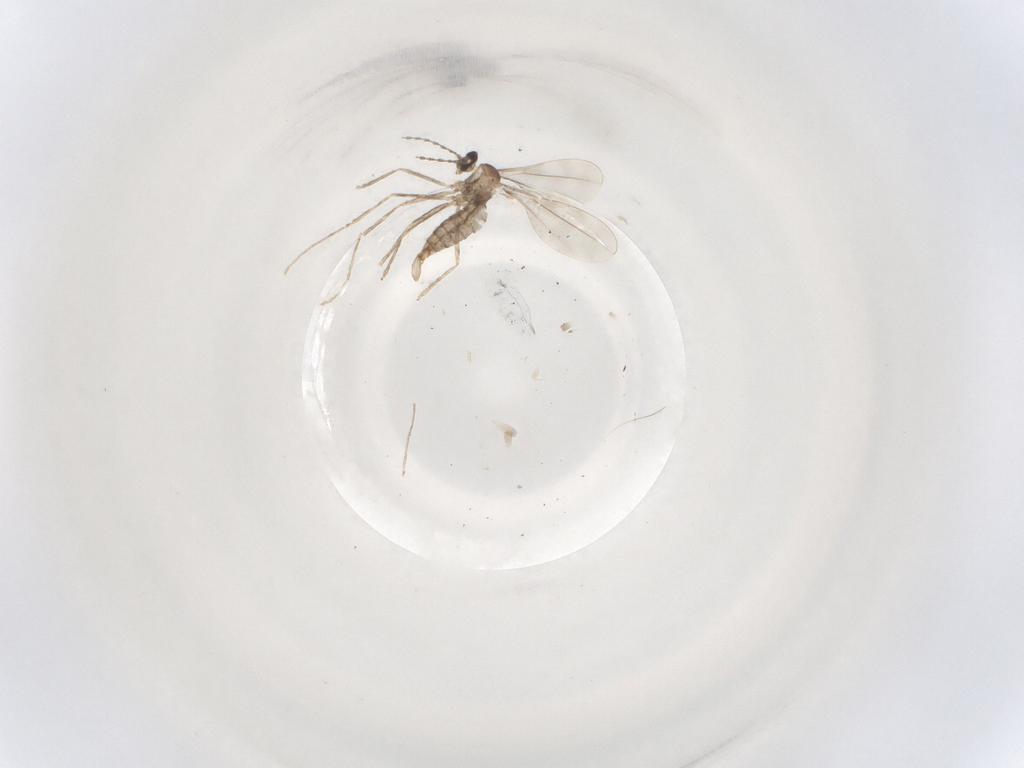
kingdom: Animalia
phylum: Arthropoda
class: Insecta
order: Diptera
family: Cecidomyiidae
